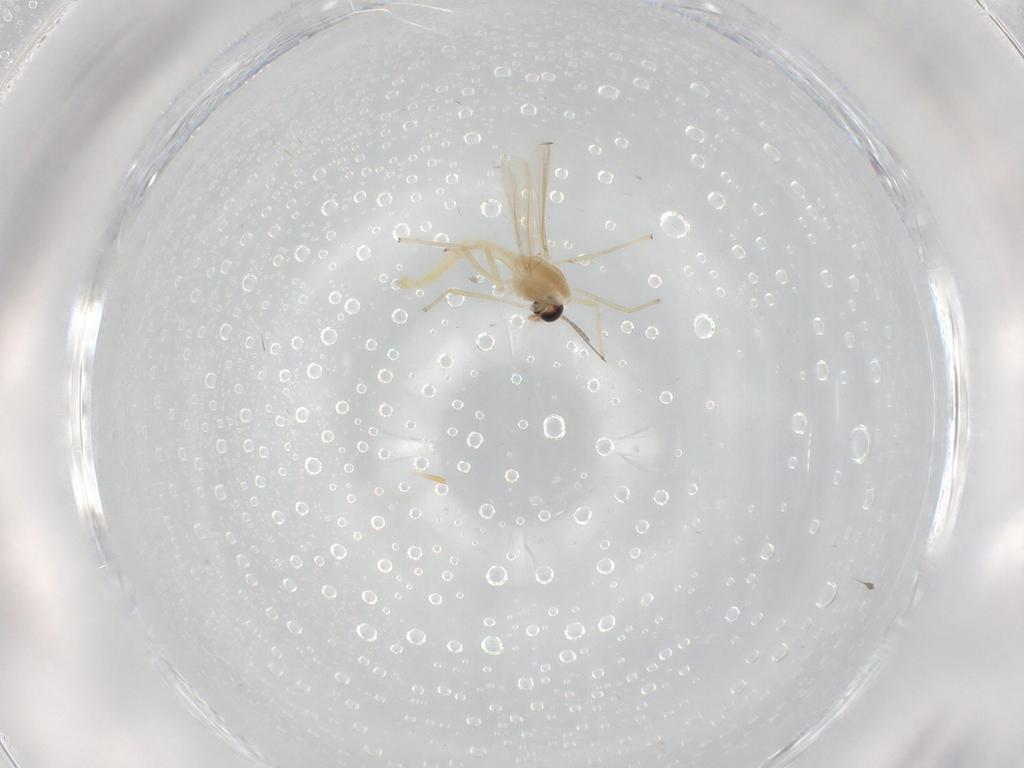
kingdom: Animalia
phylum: Arthropoda
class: Insecta
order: Diptera
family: Chironomidae
